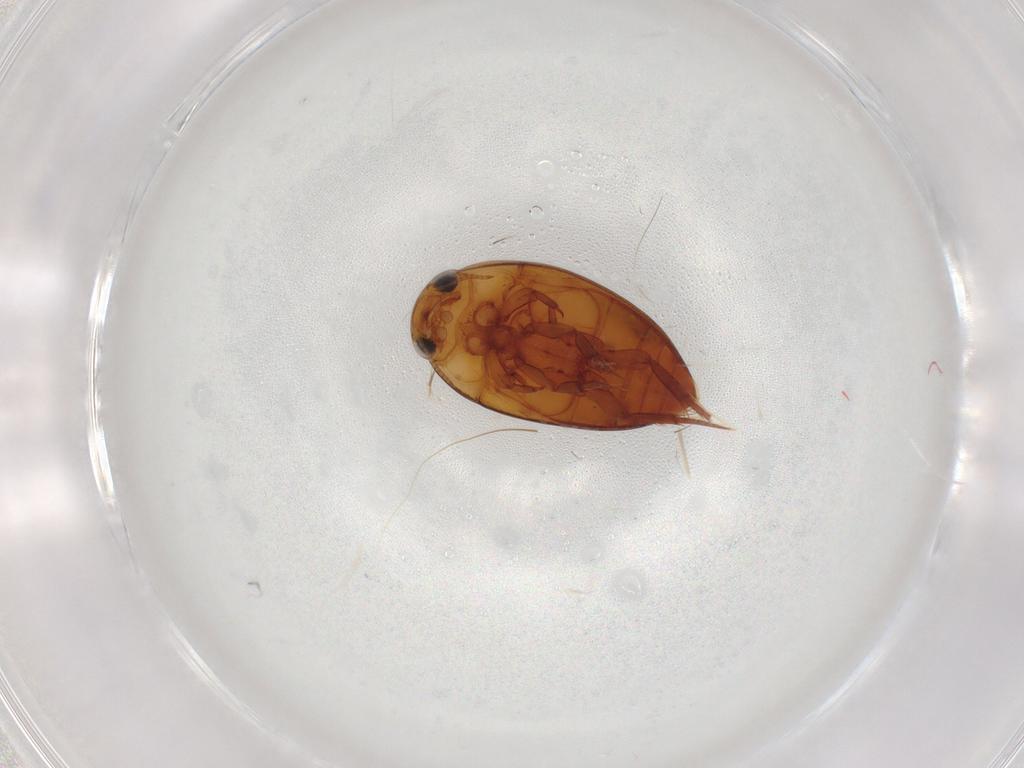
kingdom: Animalia
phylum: Arthropoda
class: Insecta
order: Coleoptera
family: Noteridae
